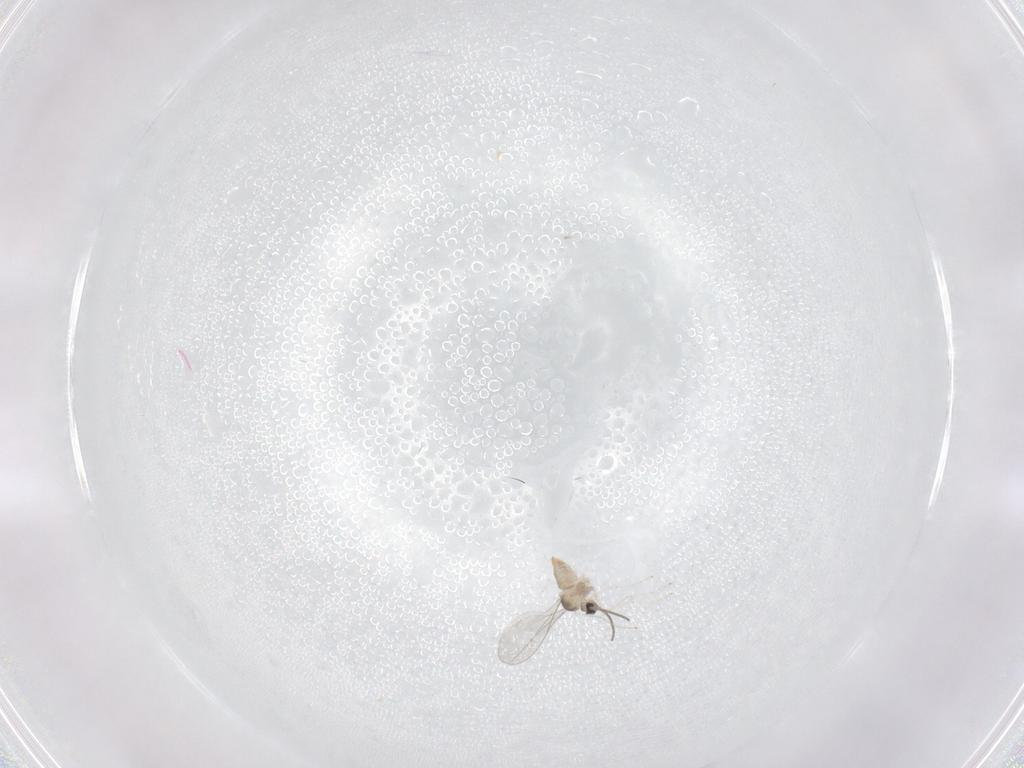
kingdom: Animalia
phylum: Arthropoda
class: Insecta
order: Diptera
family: Cecidomyiidae
